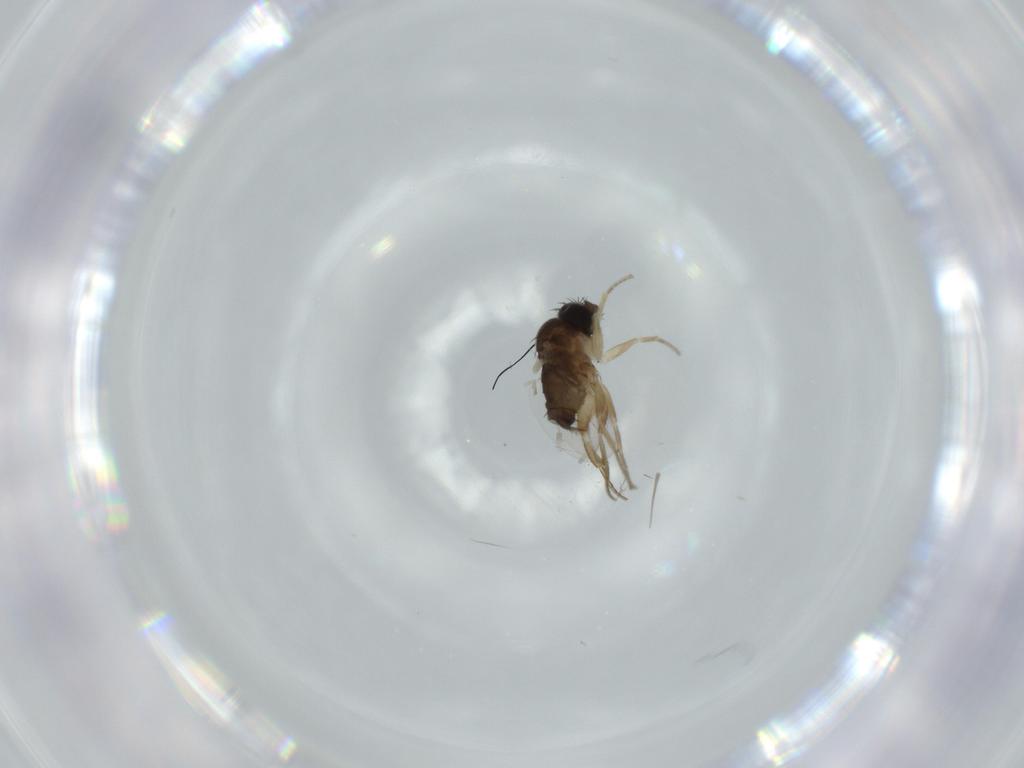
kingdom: Animalia
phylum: Arthropoda
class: Insecta
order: Diptera
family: Phoridae
